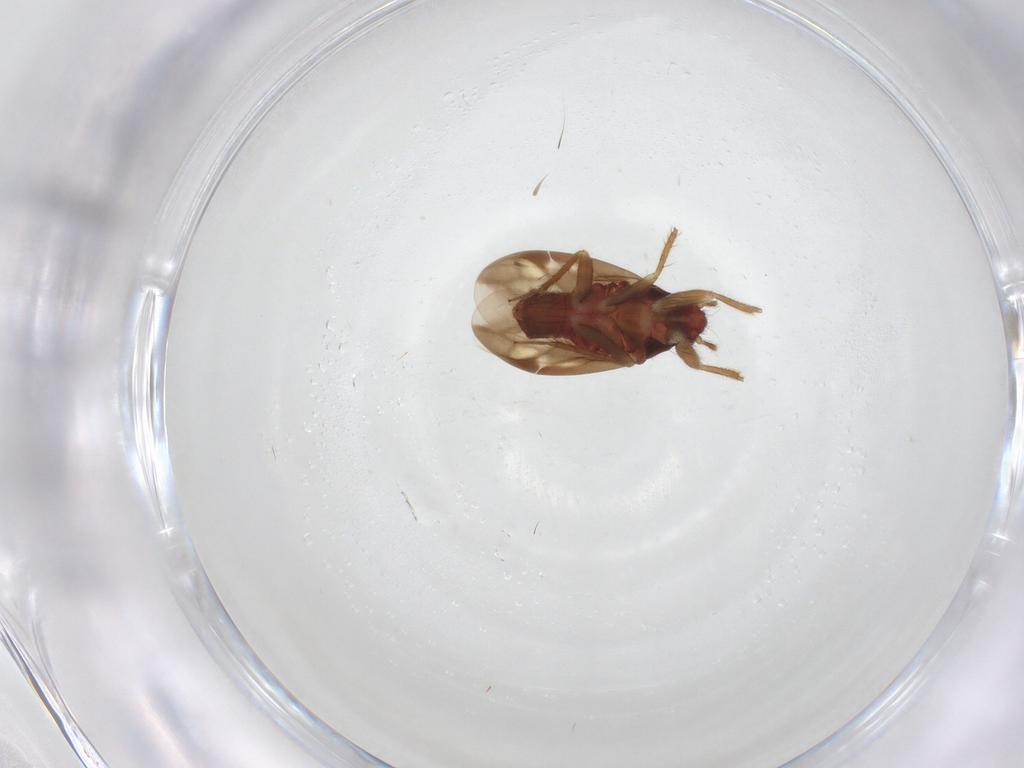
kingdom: Animalia
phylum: Arthropoda
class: Insecta
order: Hemiptera
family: Ceratocombidae
